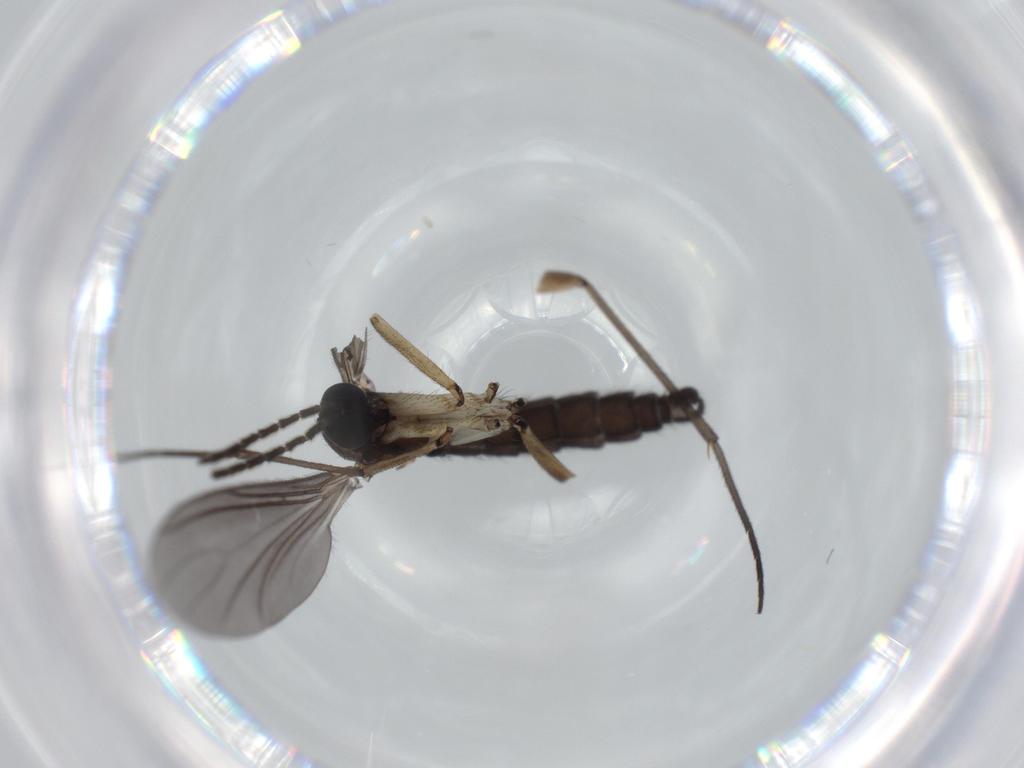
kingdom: Animalia
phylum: Arthropoda
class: Insecta
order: Diptera
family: Sciaridae
